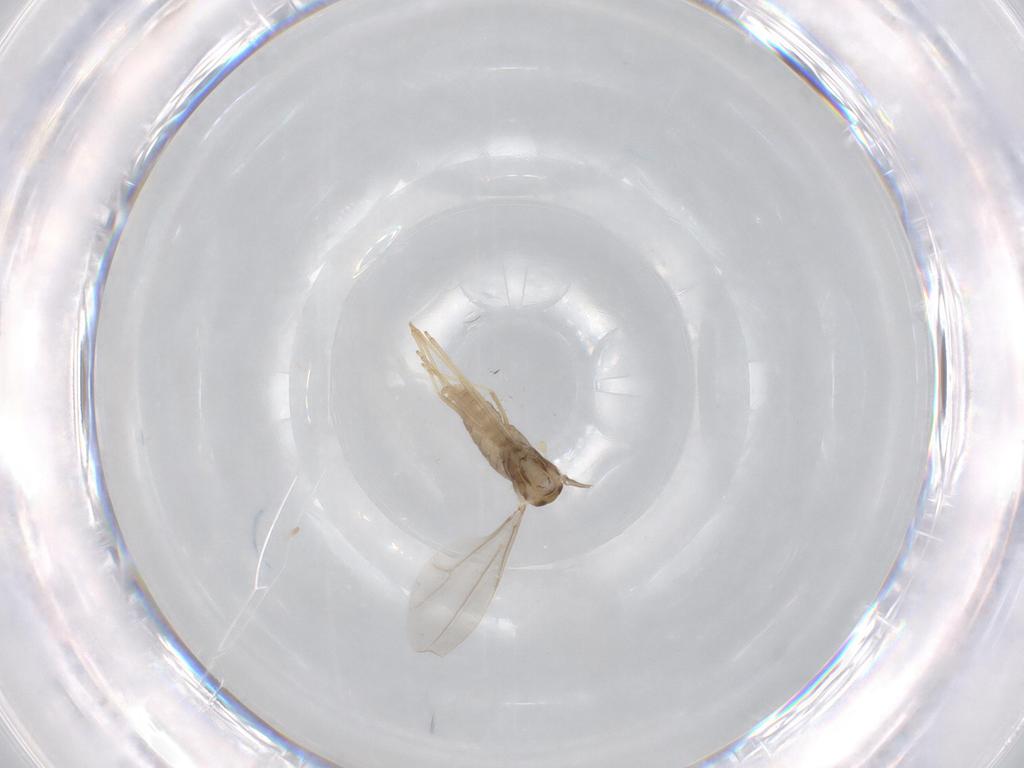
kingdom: Animalia
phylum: Arthropoda
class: Insecta
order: Diptera
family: Cecidomyiidae
